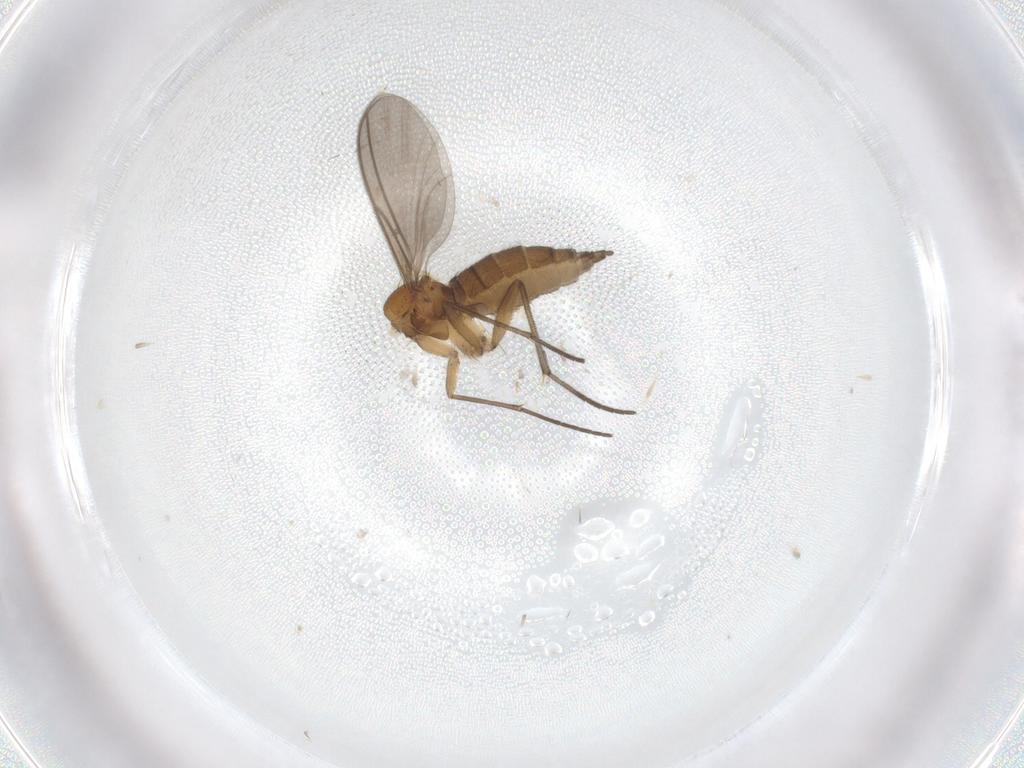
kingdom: Animalia
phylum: Arthropoda
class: Insecta
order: Diptera
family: Sciaridae
